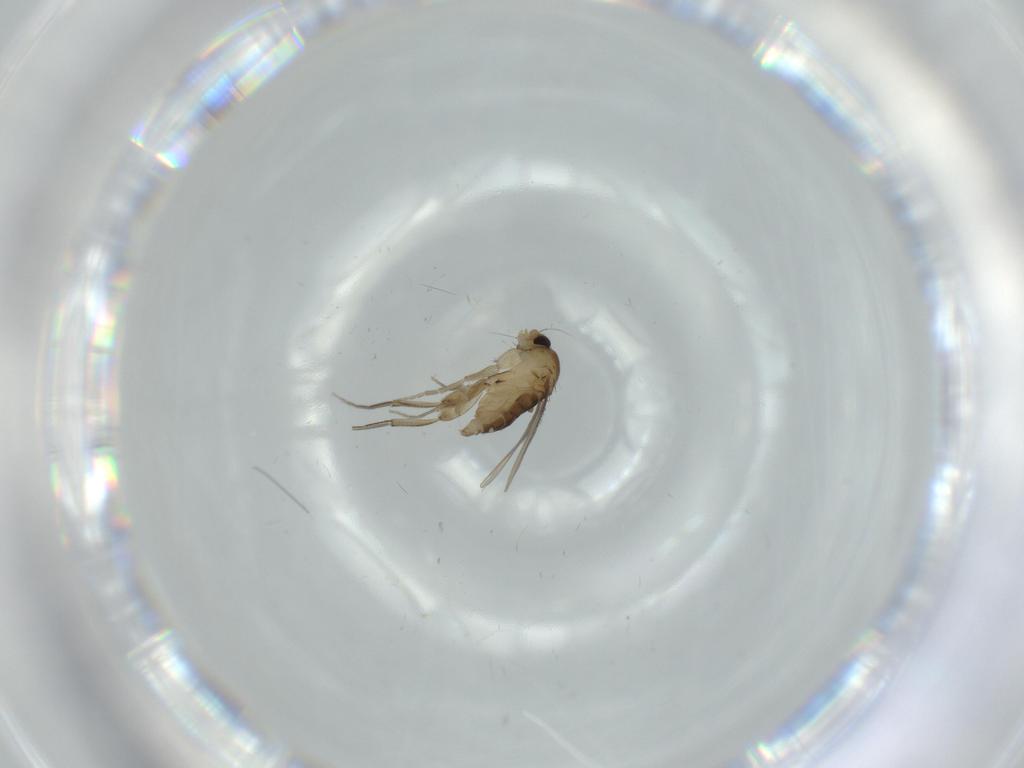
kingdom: Animalia
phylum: Arthropoda
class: Insecta
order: Diptera
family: Phoridae
